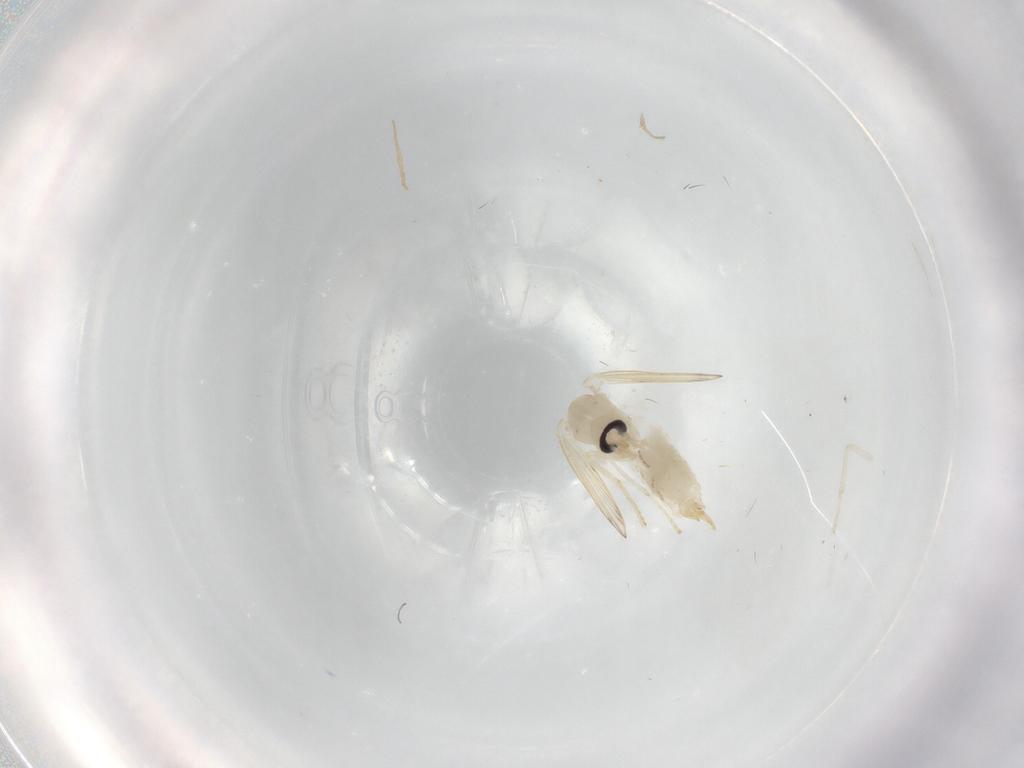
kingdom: Animalia
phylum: Arthropoda
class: Insecta
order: Diptera
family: Psychodidae
